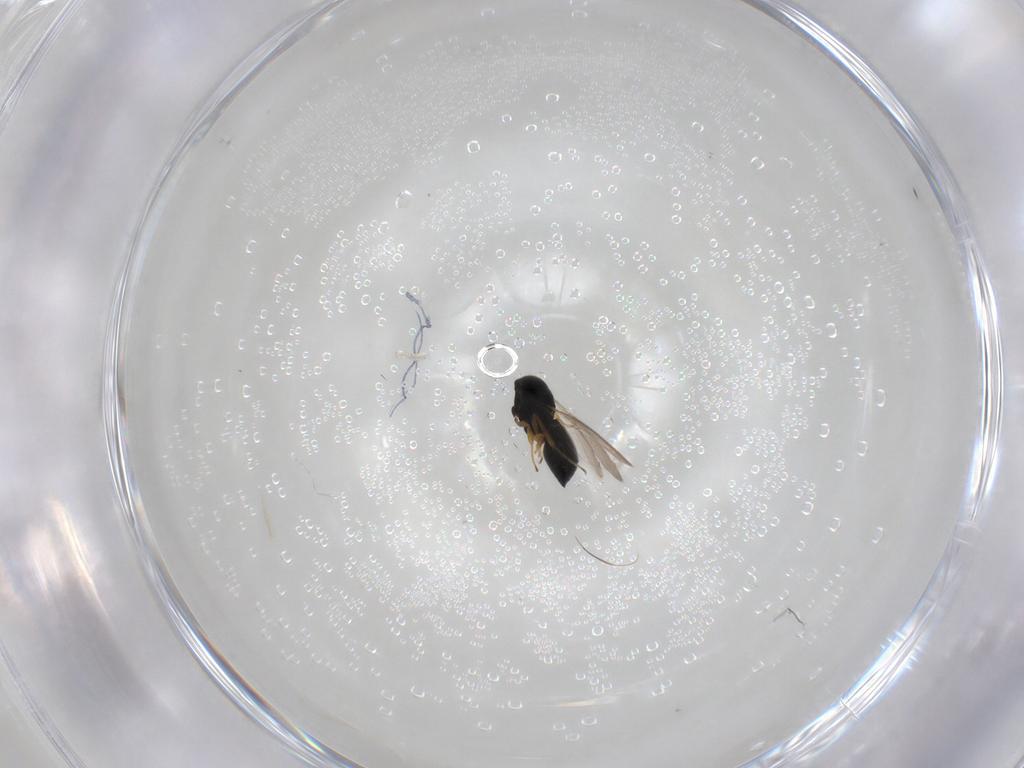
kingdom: Animalia
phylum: Arthropoda
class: Insecta
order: Hymenoptera
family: Scelionidae
